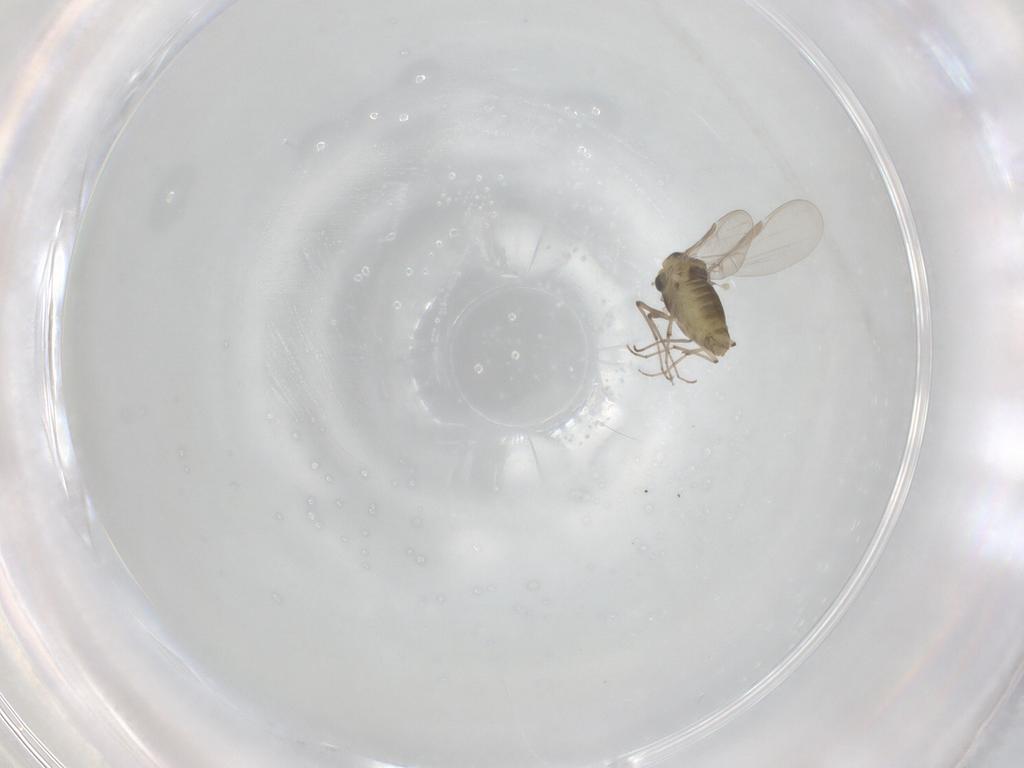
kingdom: Animalia
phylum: Arthropoda
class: Insecta
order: Diptera
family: Chironomidae
